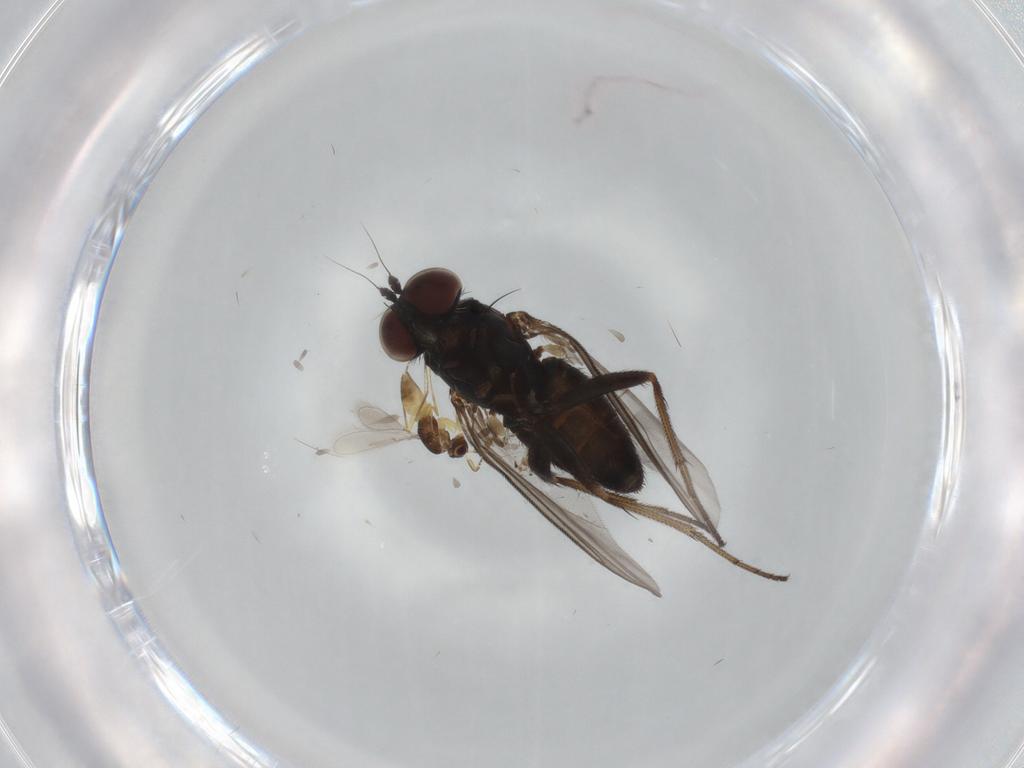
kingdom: Animalia
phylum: Arthropoda
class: Insecta
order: Diptera
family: Dolichopodidae
